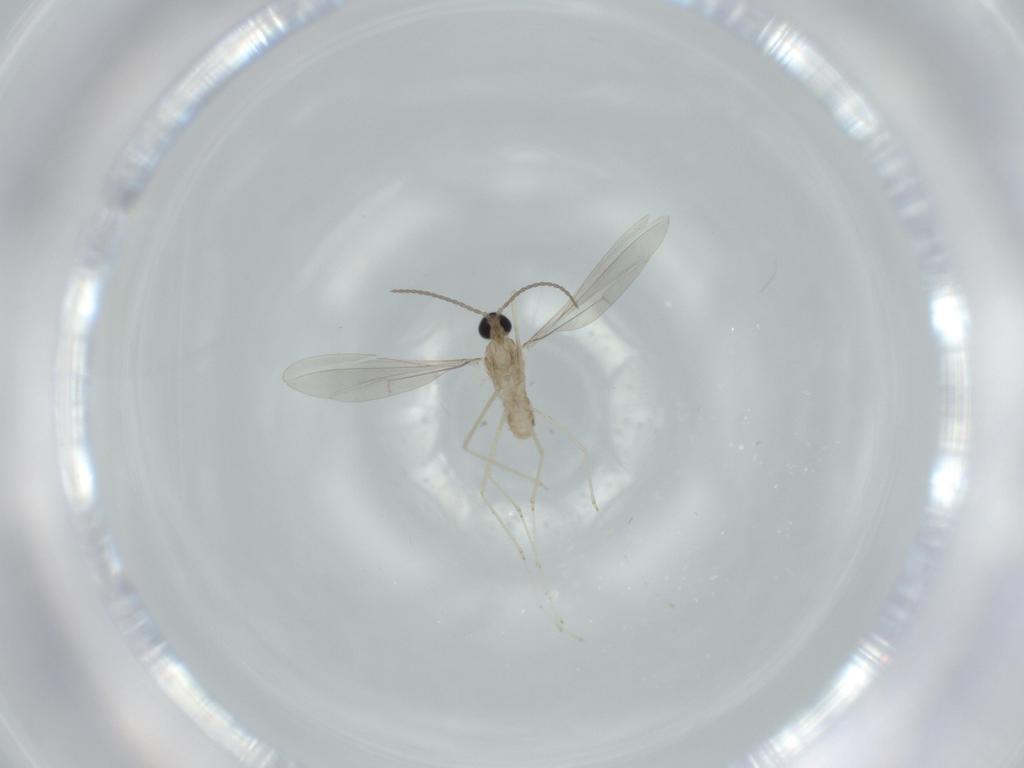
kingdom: Animalia
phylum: Arthropoda
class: Insecta
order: Diptera
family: Cecidomyiidae
